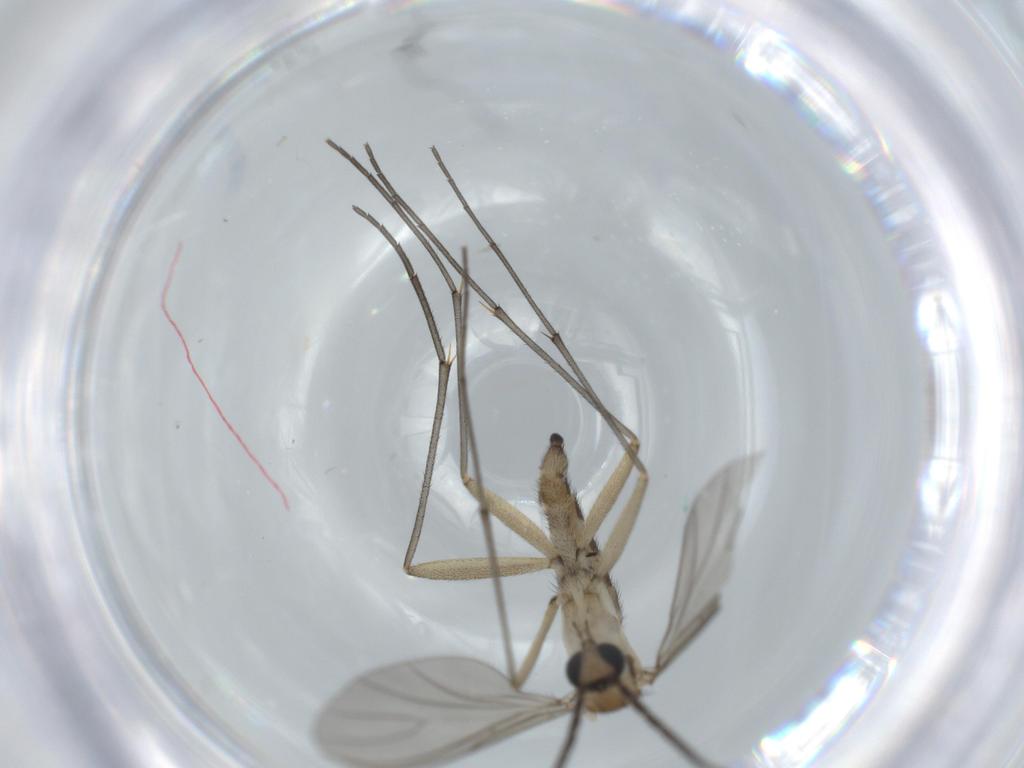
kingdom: Animalia
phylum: Arthropoda
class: Insecta
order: Diptera
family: Sciaridae
